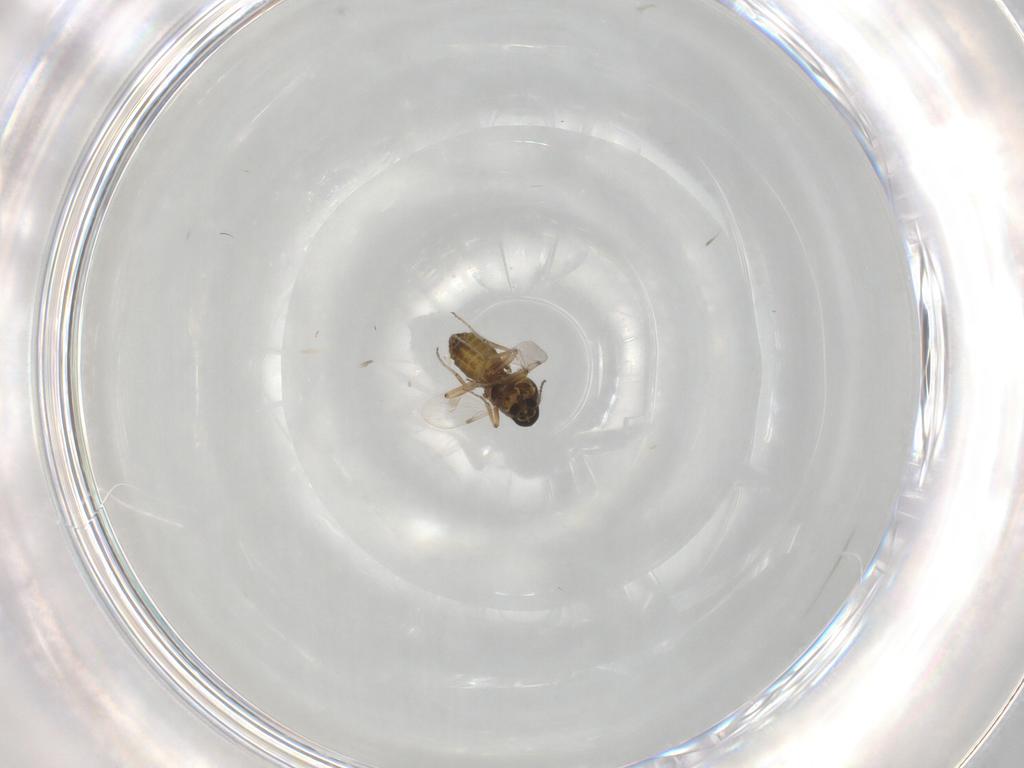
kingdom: Animalia
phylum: Arthropoda
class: Insecta
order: Diptera
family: Ceratopogonidae
